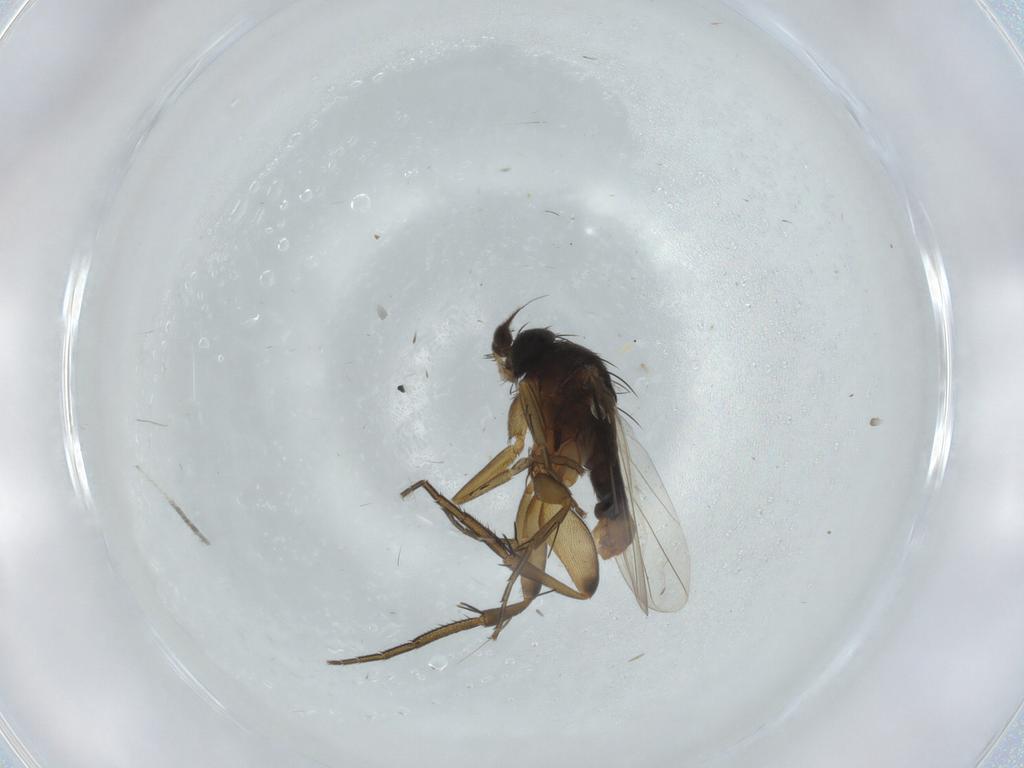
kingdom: Animalia
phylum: Arthropoda
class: Insecta
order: Diptera
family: Phoridae
